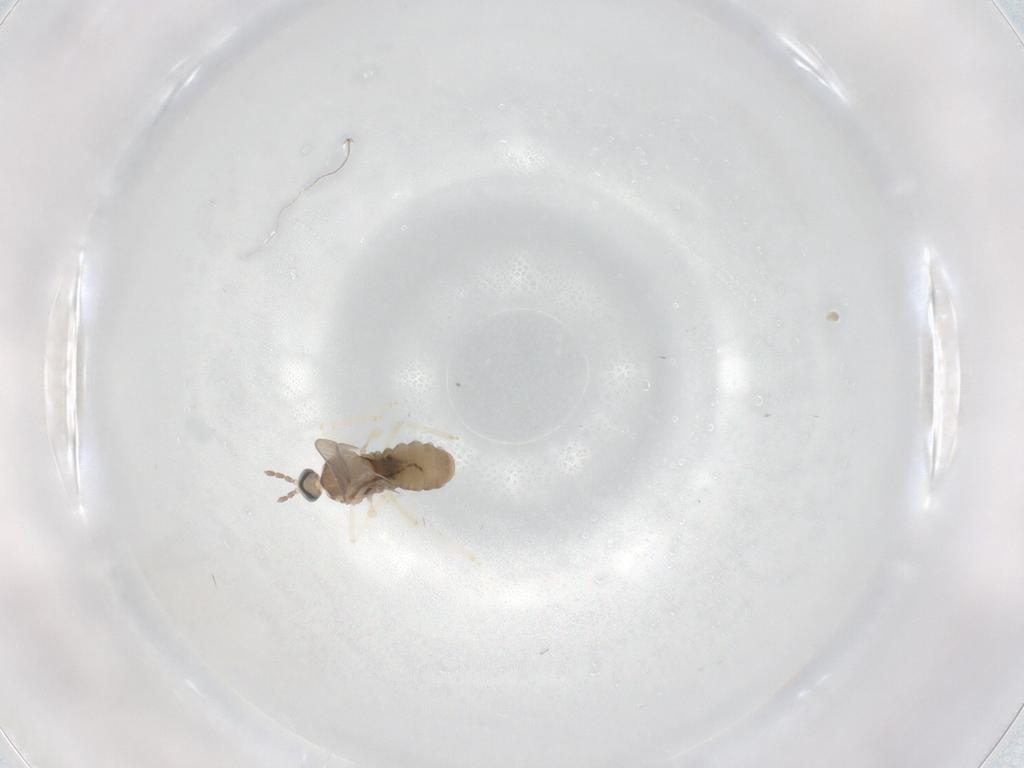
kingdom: Animalia
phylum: Arthropoda
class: Insecta
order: Diptera
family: Cecidomyiidae
